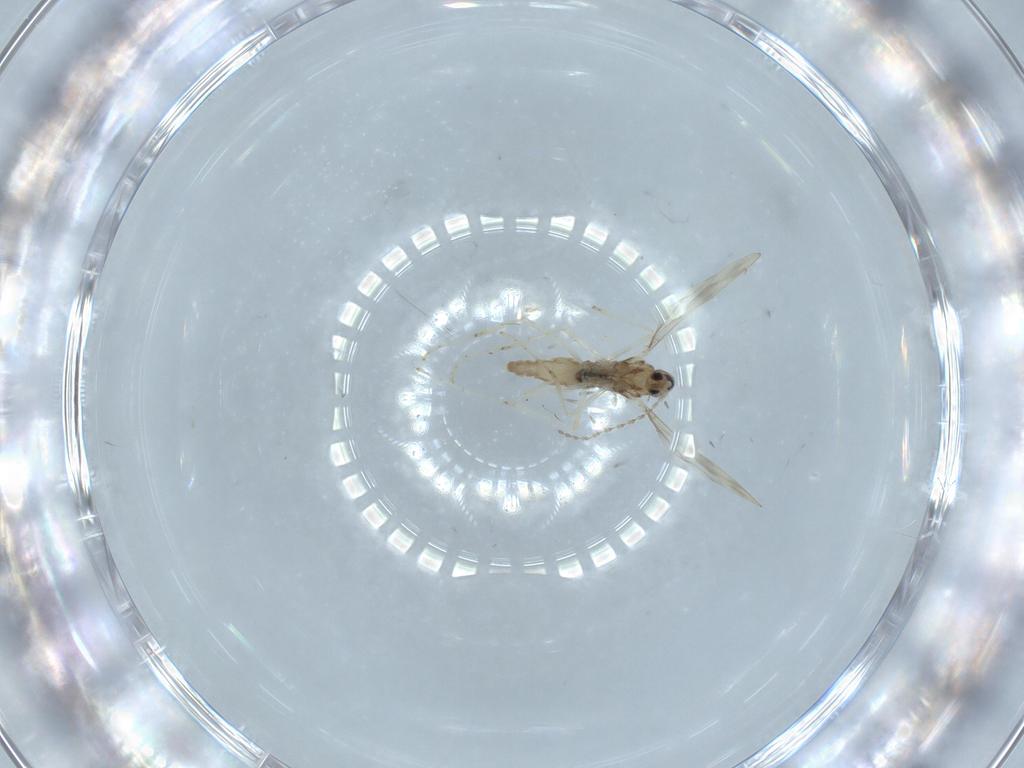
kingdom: Animalia
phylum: Arthropoda
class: Insecta
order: Diptera
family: Cecidomyiidae
